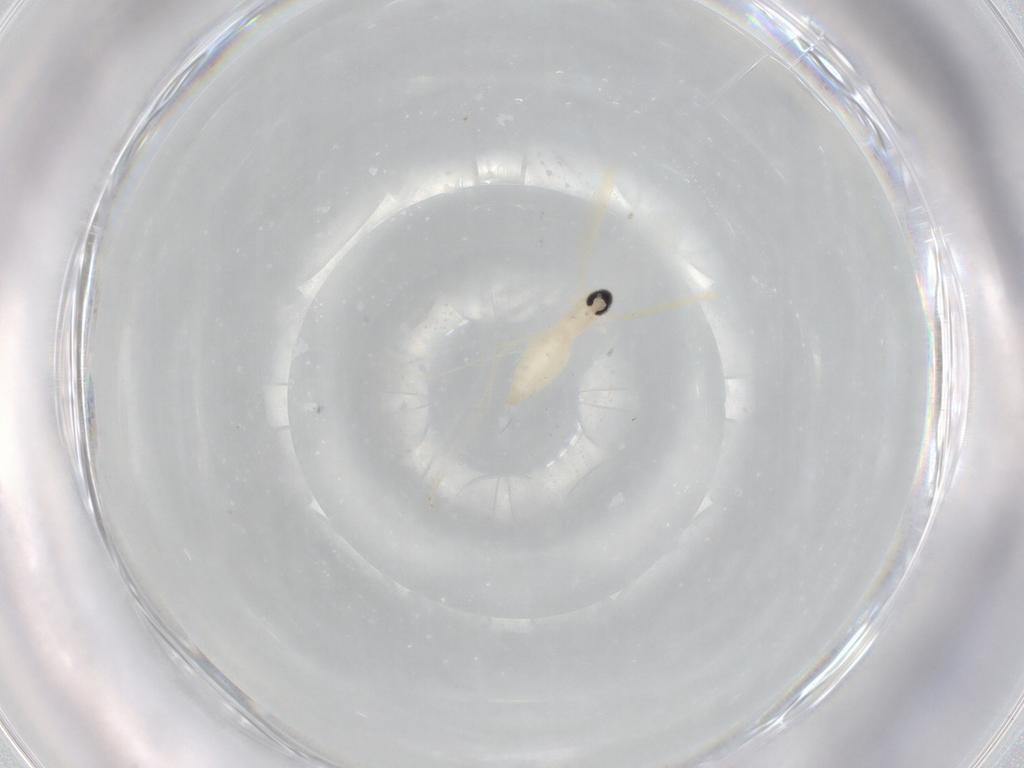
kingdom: Animalia
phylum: Arthropoda
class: Insecta
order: Diptera
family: Cecidomyiidae
